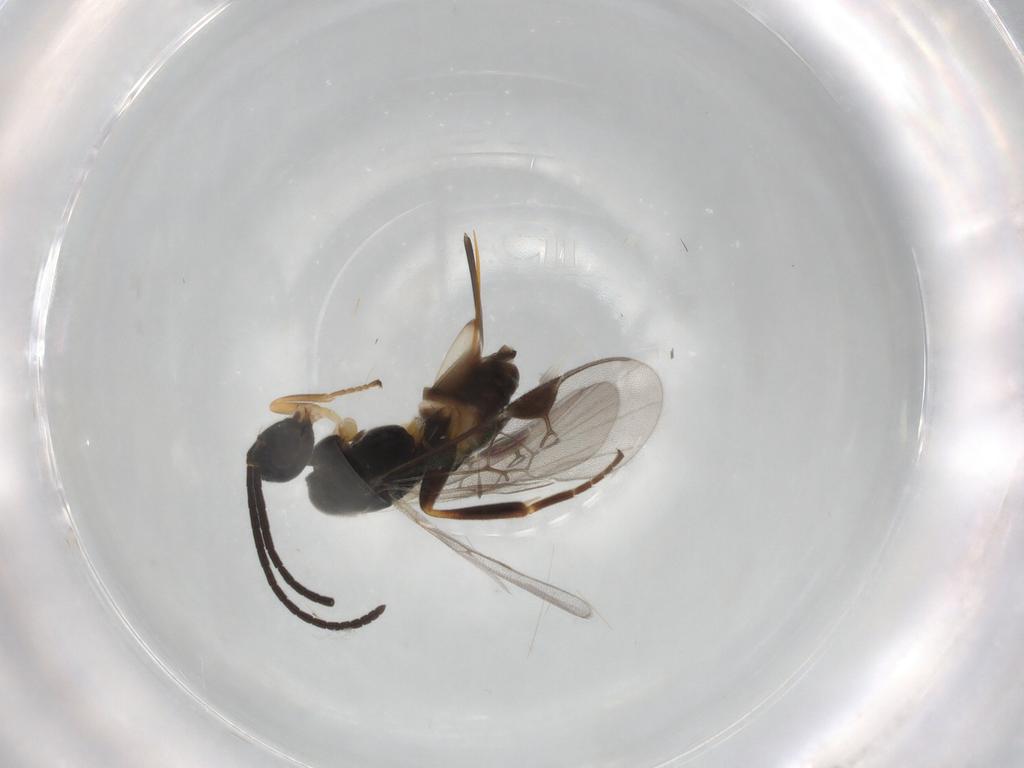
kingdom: Animalia
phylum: Arthropoda
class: Insecta
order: Hymenoptera
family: Braconidae
